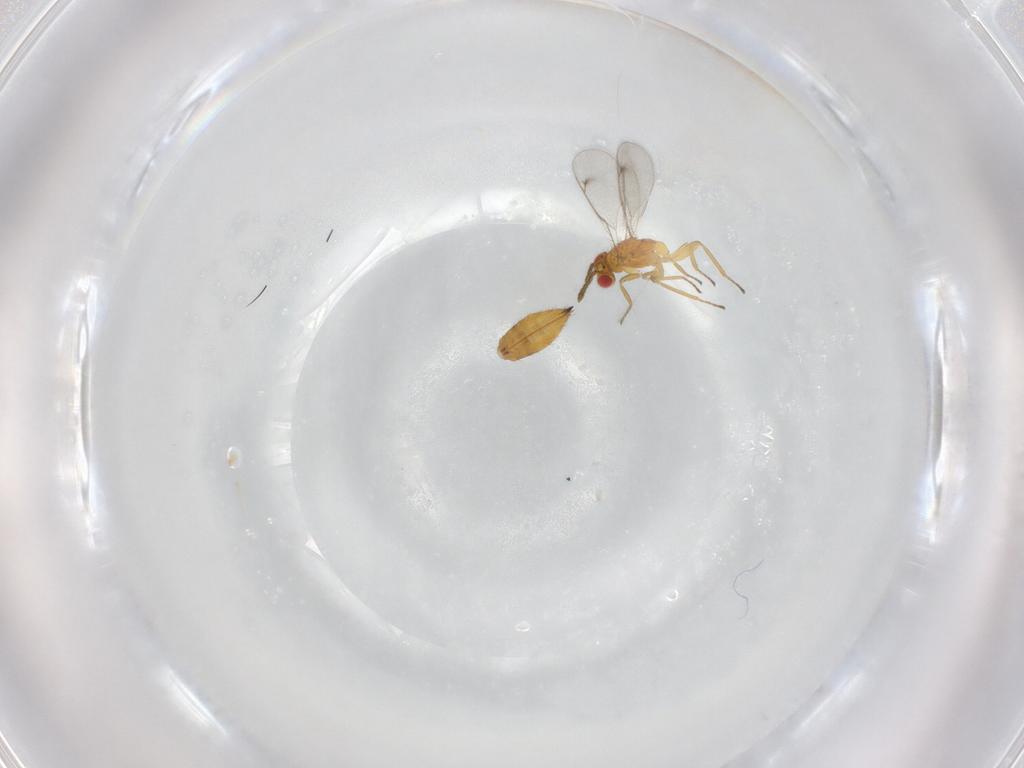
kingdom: Animalia
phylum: Arthropoda
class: Insecta
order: Hymenoptera
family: Eulophidae
